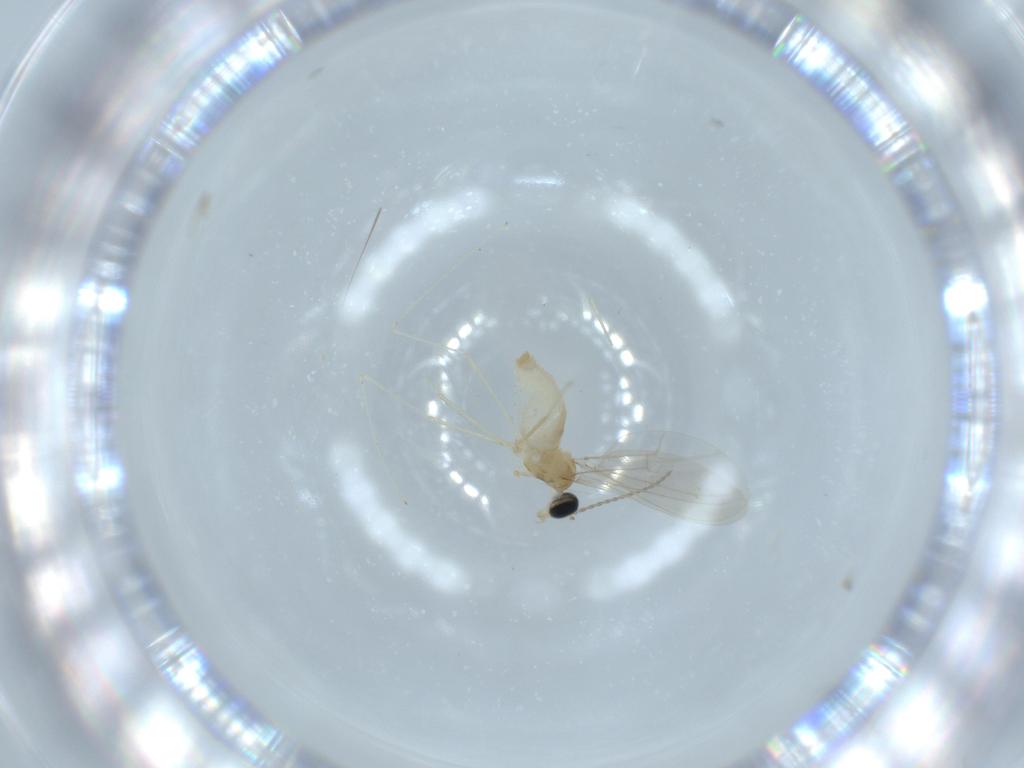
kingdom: Animalia
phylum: Arthropoda
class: Insecta
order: Diptera
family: Cecidomyiidae
